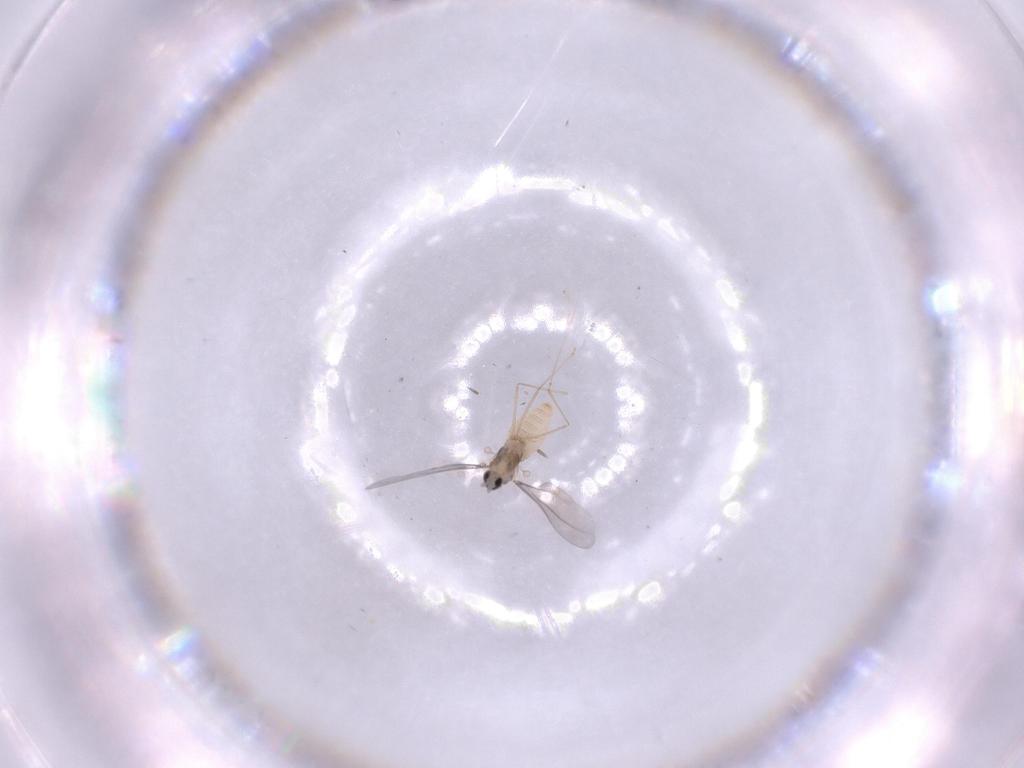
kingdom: Animalia
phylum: Arthropoda
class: Insecta
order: Diptera
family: Cecidomyiidae
